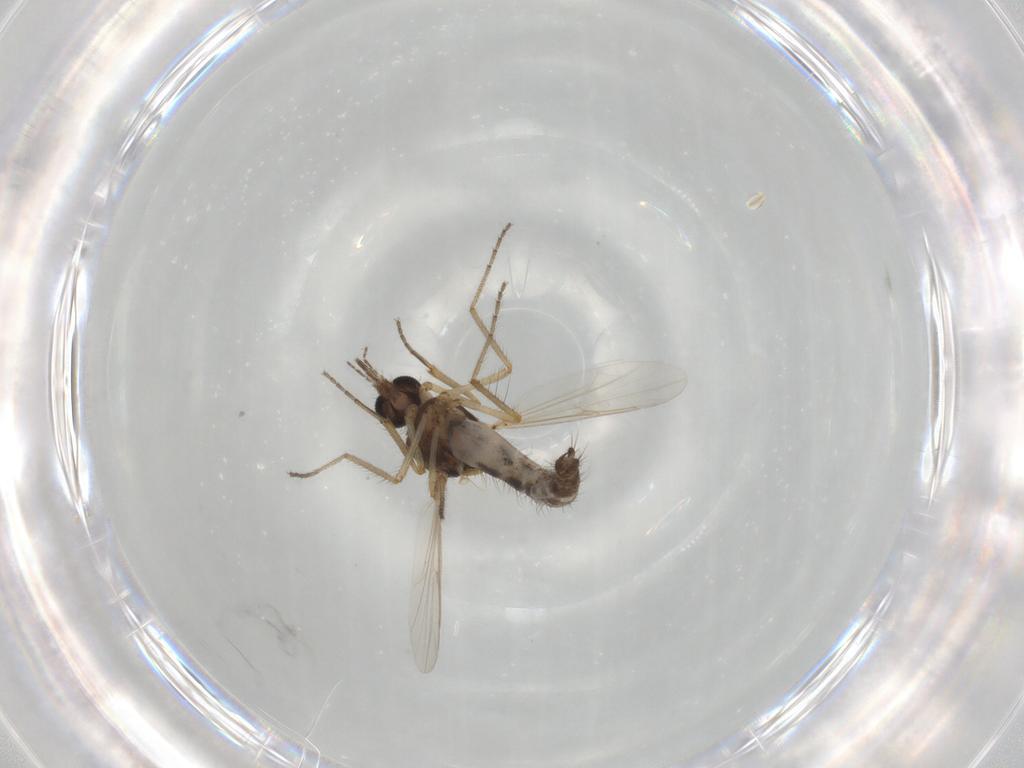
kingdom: Animalia
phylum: Arthropoda
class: Insecta
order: Diptera
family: Ceratopogonidae
